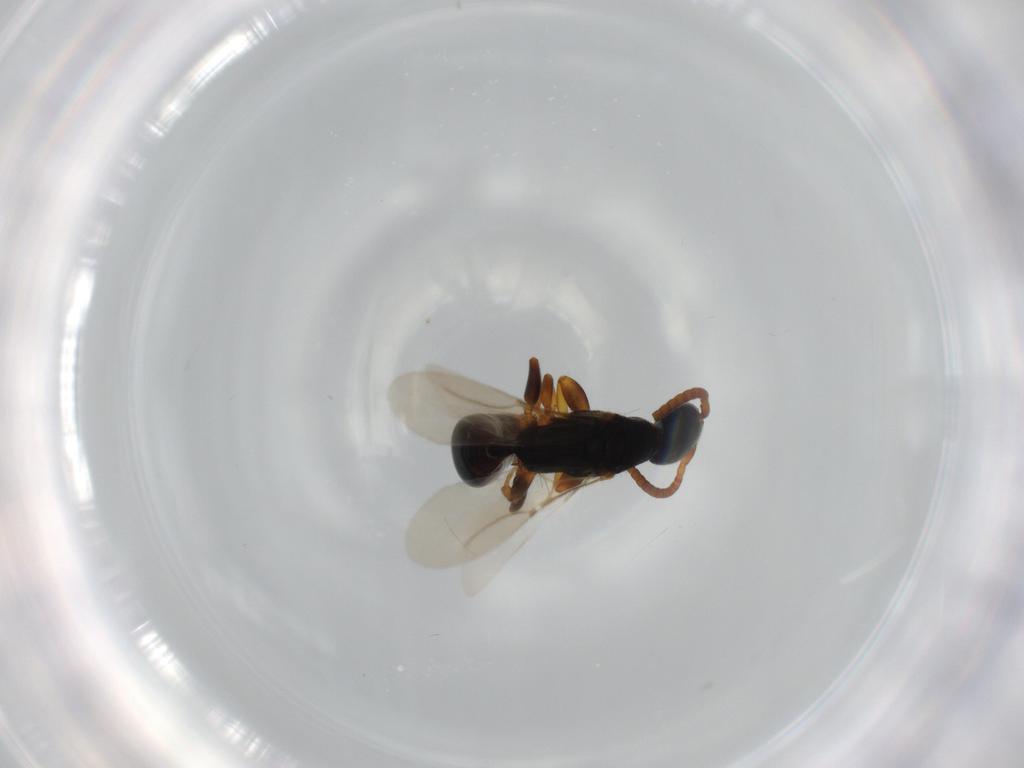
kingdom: Animalia
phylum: Arthropoda
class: Insecta
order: Hymenoptera
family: Bethylidae
